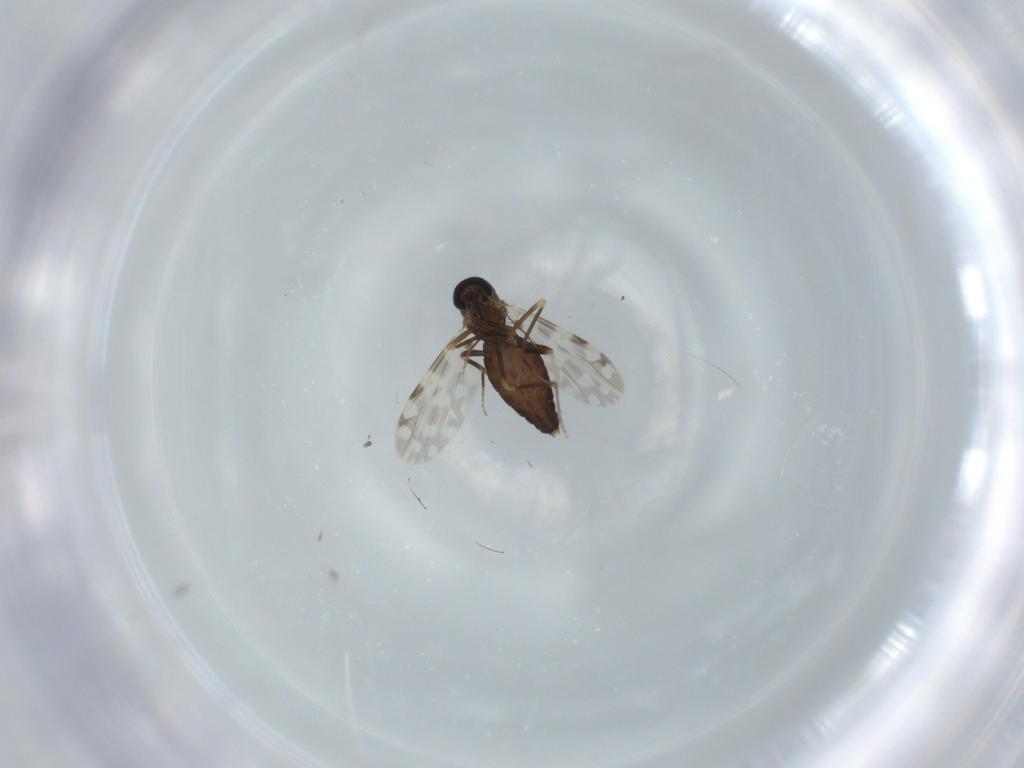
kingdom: Animalia
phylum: Arthropoda
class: Insecta
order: Diptera
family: Ceratopogonidae
